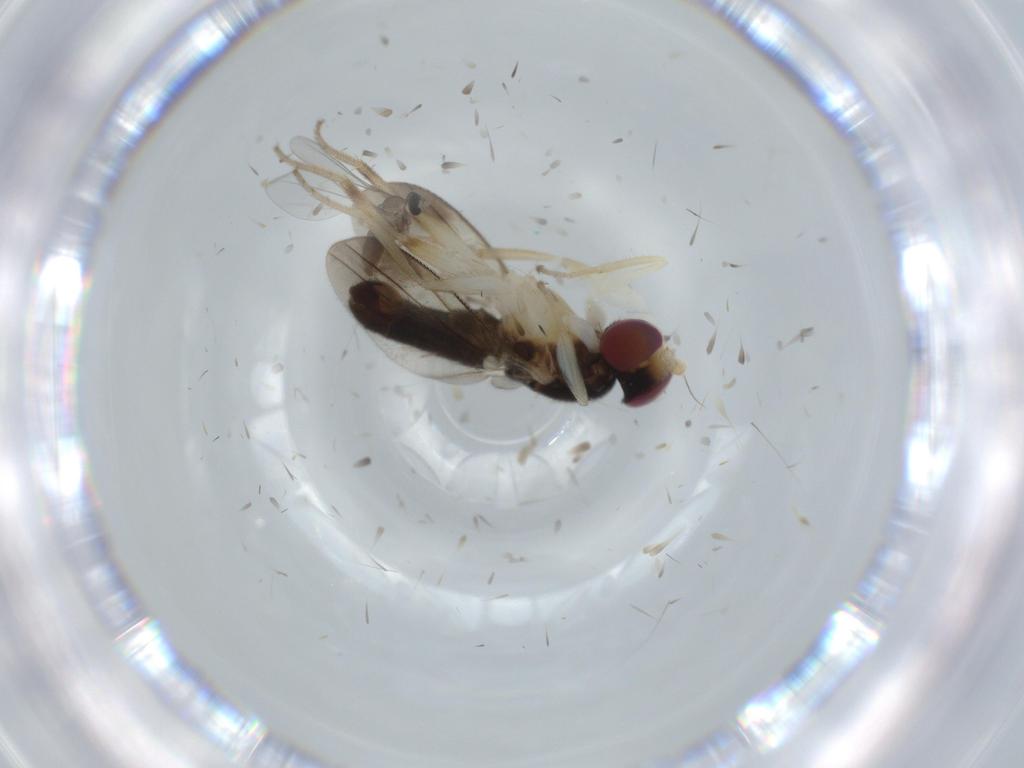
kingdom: Animalia
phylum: Arthropoda
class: Insecta
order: Diptera
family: Cecidomyiidae
